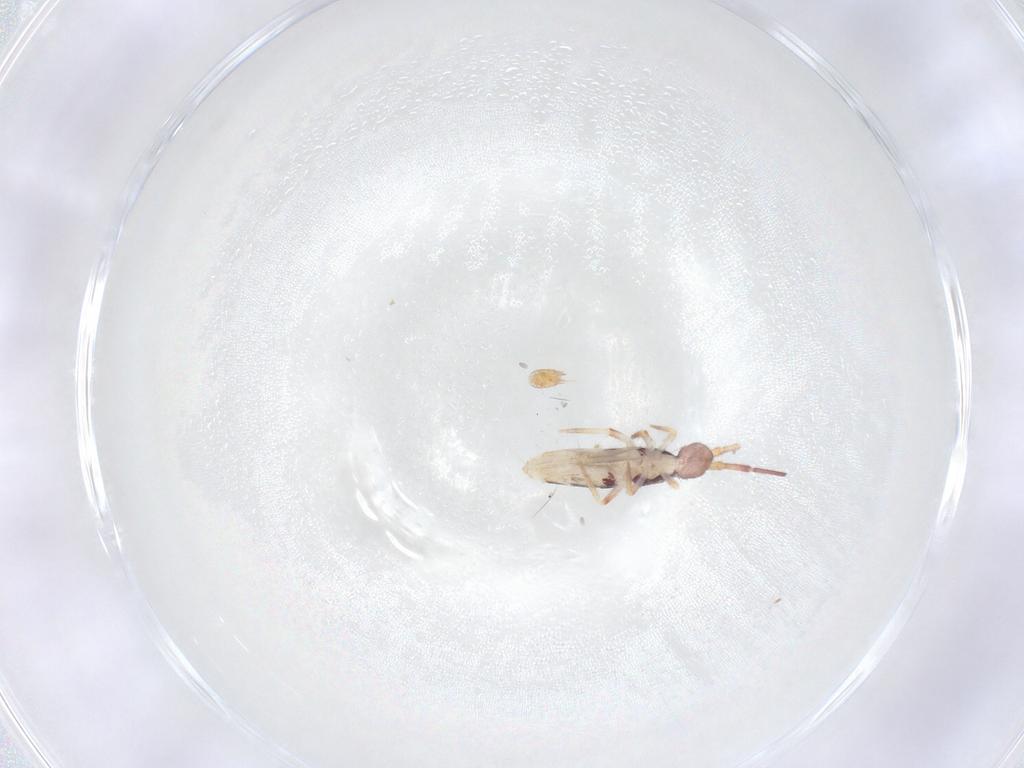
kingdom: Animalia
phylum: Arthropoda
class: Collembola
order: Entomobryomorpha
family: Entomobryidae
